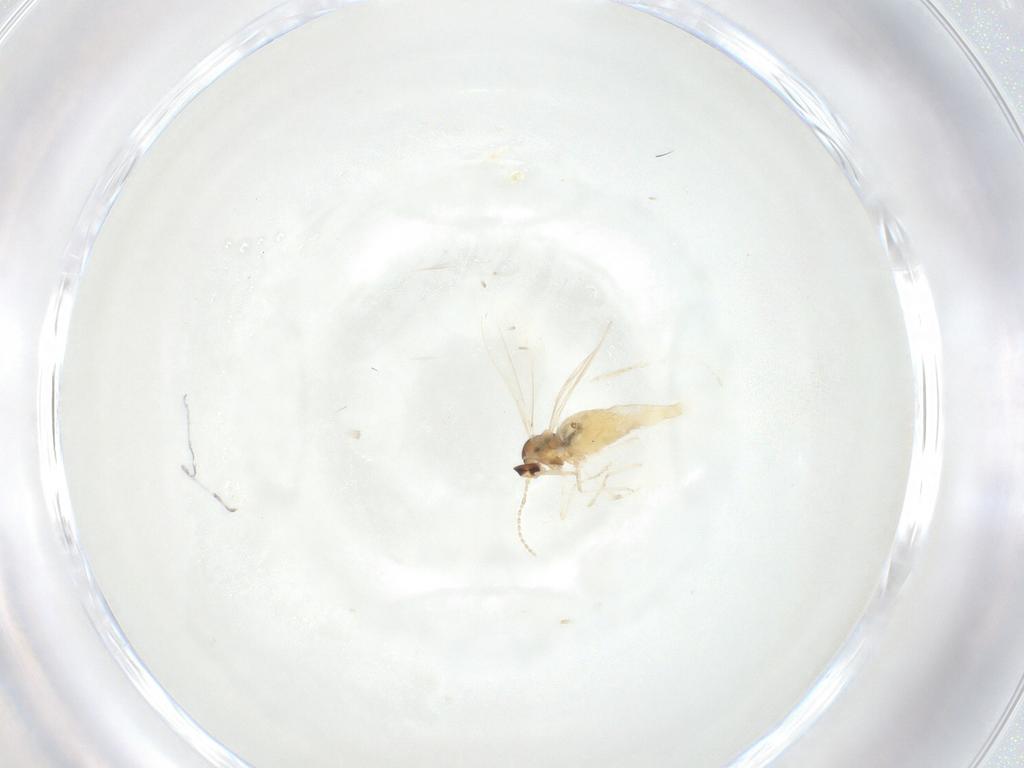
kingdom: Animalia
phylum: Arthropoda
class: Insecta
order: Diptera
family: Cecidomyiidae
